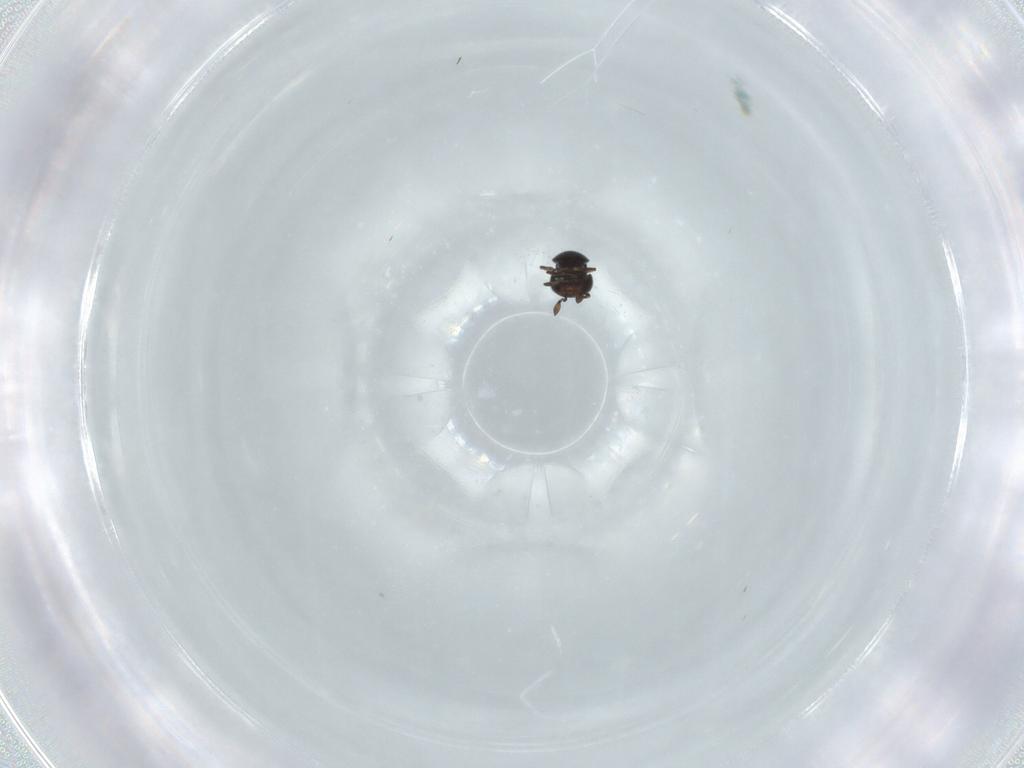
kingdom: Animalia
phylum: Arthropoda
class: Insecta
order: Hymenoptera
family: Scelionidae
